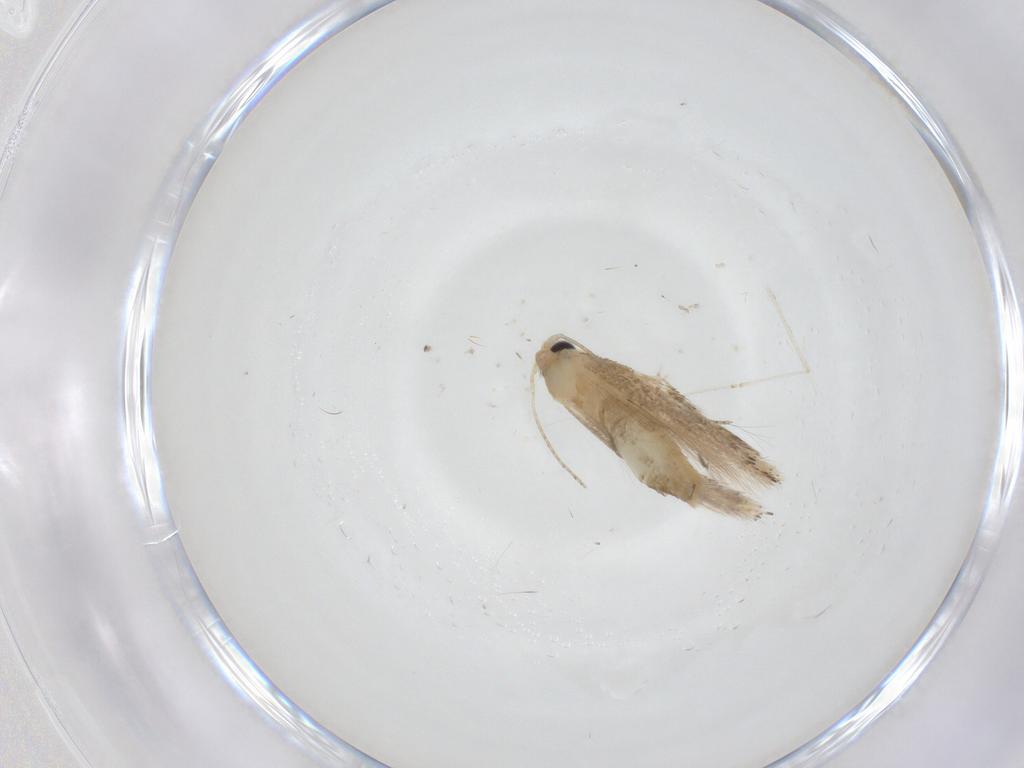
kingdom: Animalia
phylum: Arthropoda
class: Insecta
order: Lepidoptera
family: Bucculatricidae
